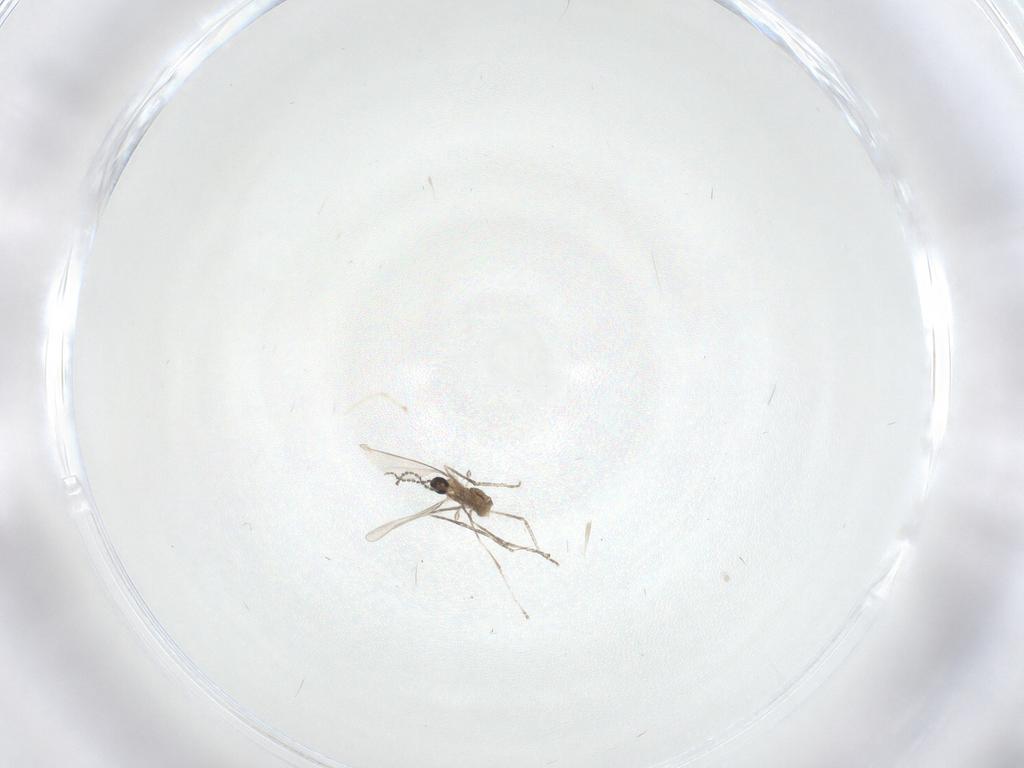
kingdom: Animalia
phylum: Arthropoda
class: Insecta
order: Diptera
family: Cecidomyiidae
